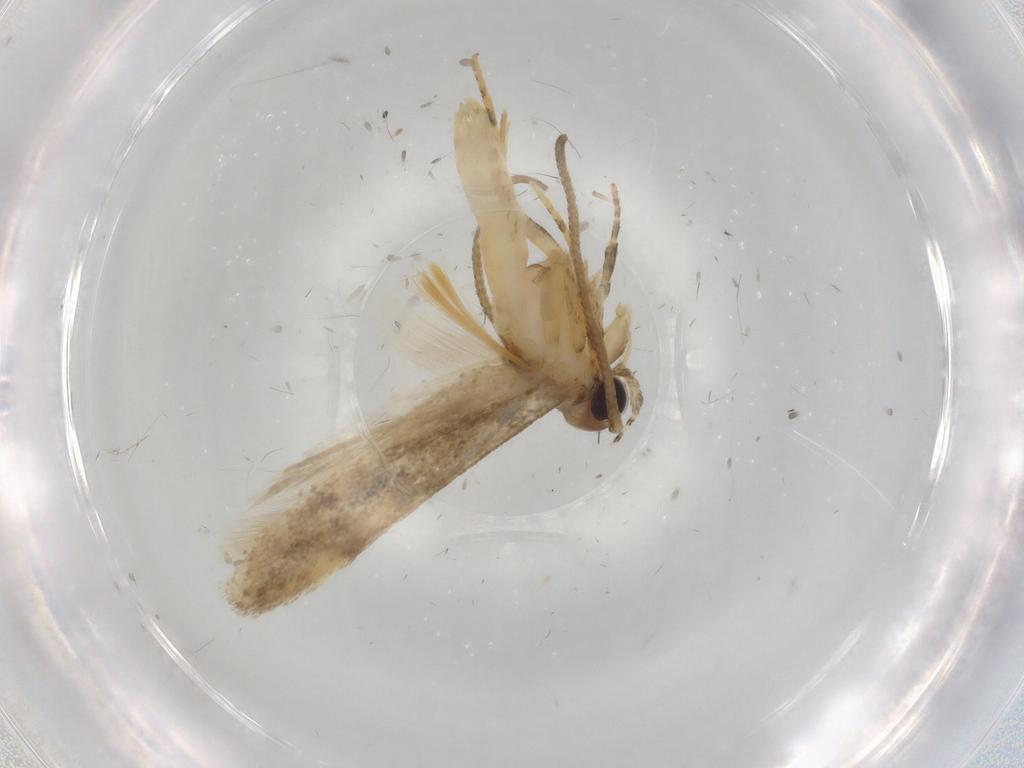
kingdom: Animalia
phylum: Arthropoda
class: Insecta
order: Lepidoptera
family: Gelechiidae
